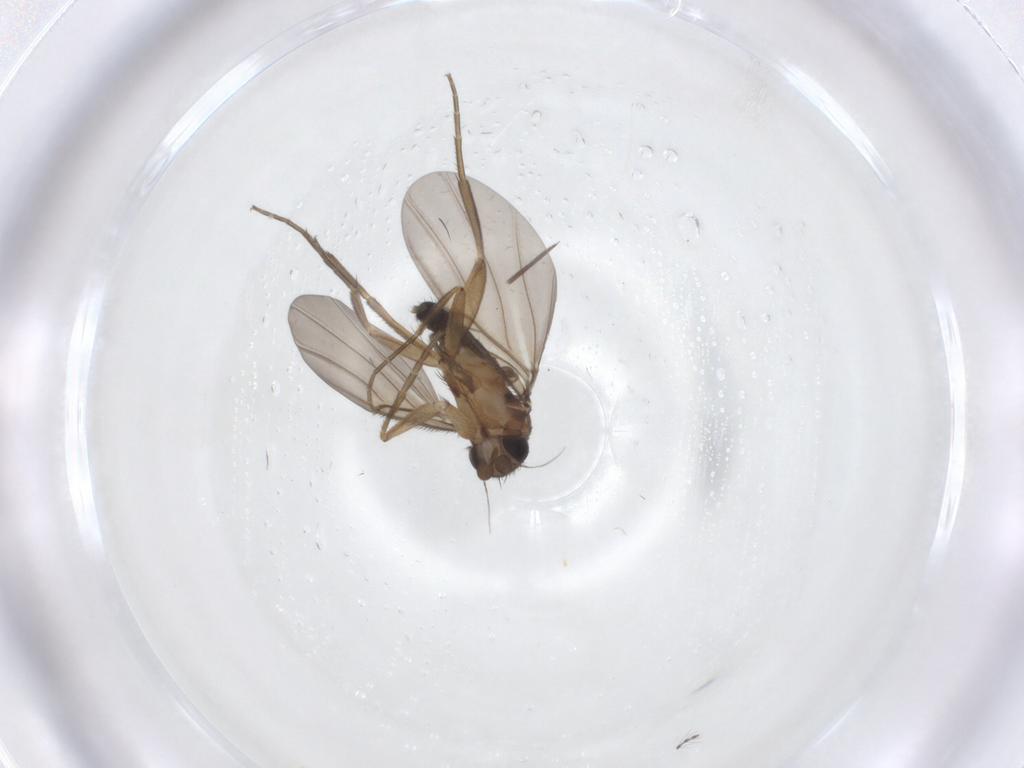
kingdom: Animalia
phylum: Arthropoda
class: Insecta
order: Diptera
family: Phoridae
